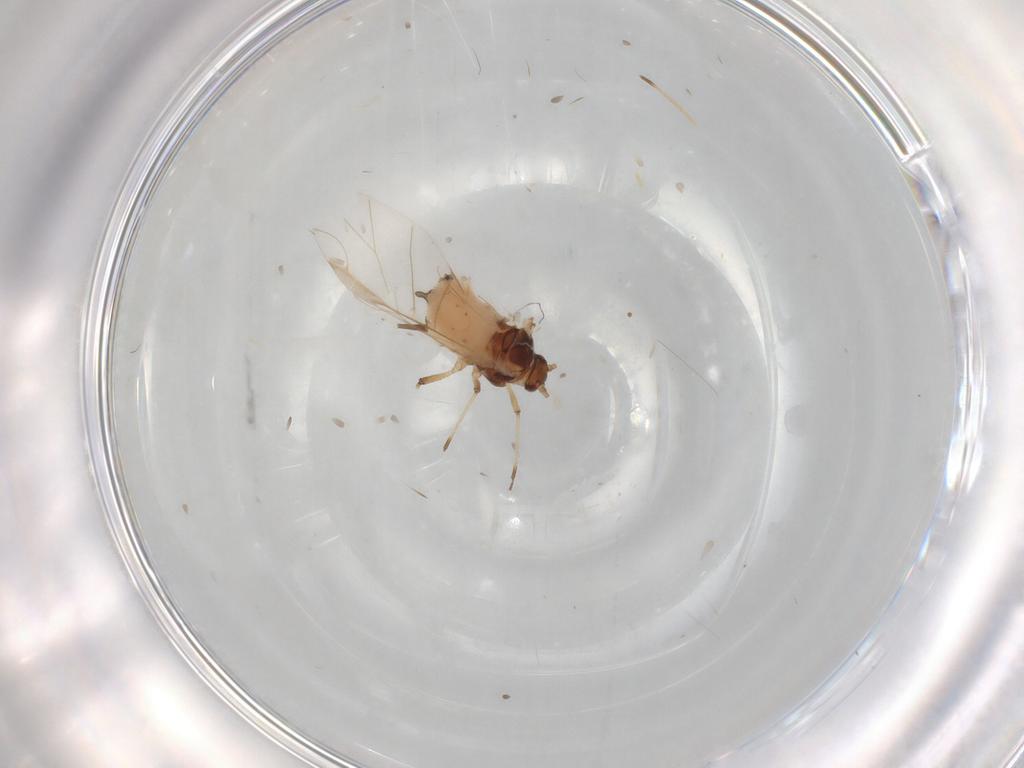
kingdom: Animalia
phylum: Arthropoda
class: Insecta
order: Hemiptera
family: Aphididae
